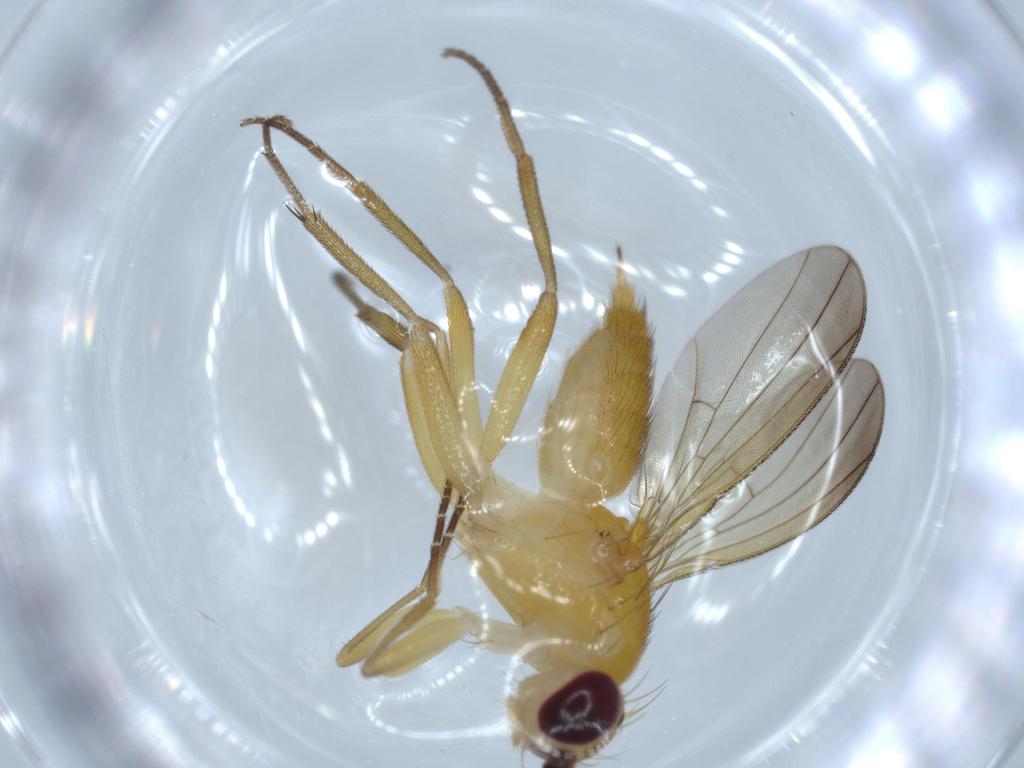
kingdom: Animalia
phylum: Arthropoda
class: Insecta
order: Diptera
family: Clusiidae
